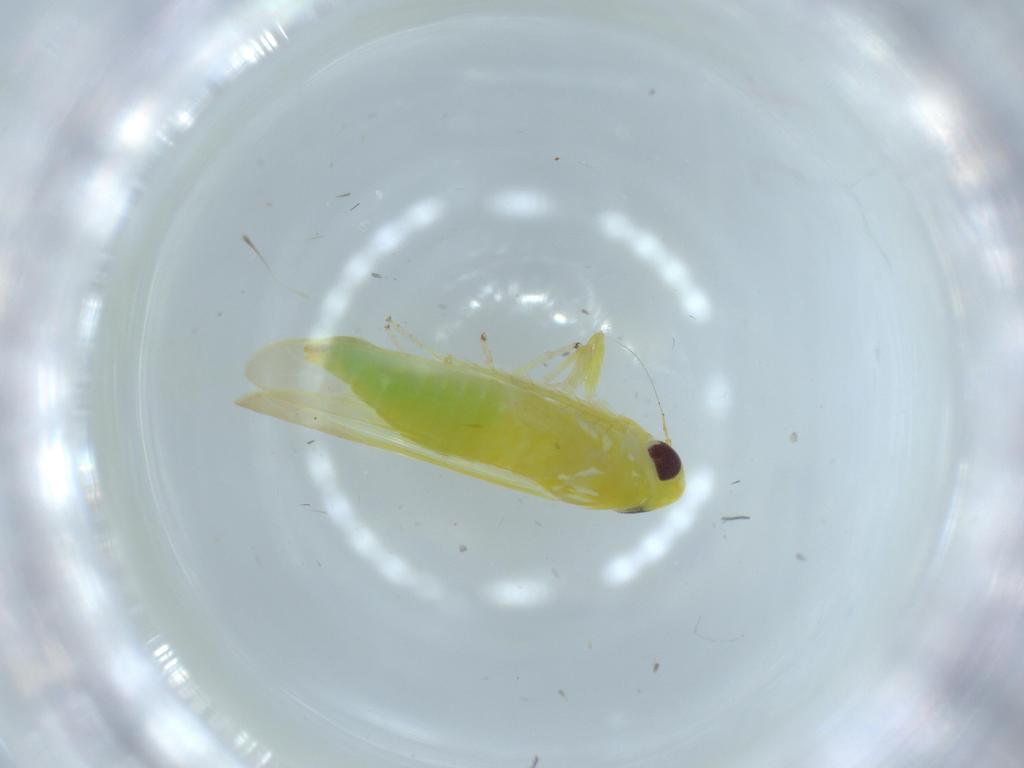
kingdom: Animalia
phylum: Arthropoda
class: Insecta
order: Hemiptera
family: Cicadellidae
